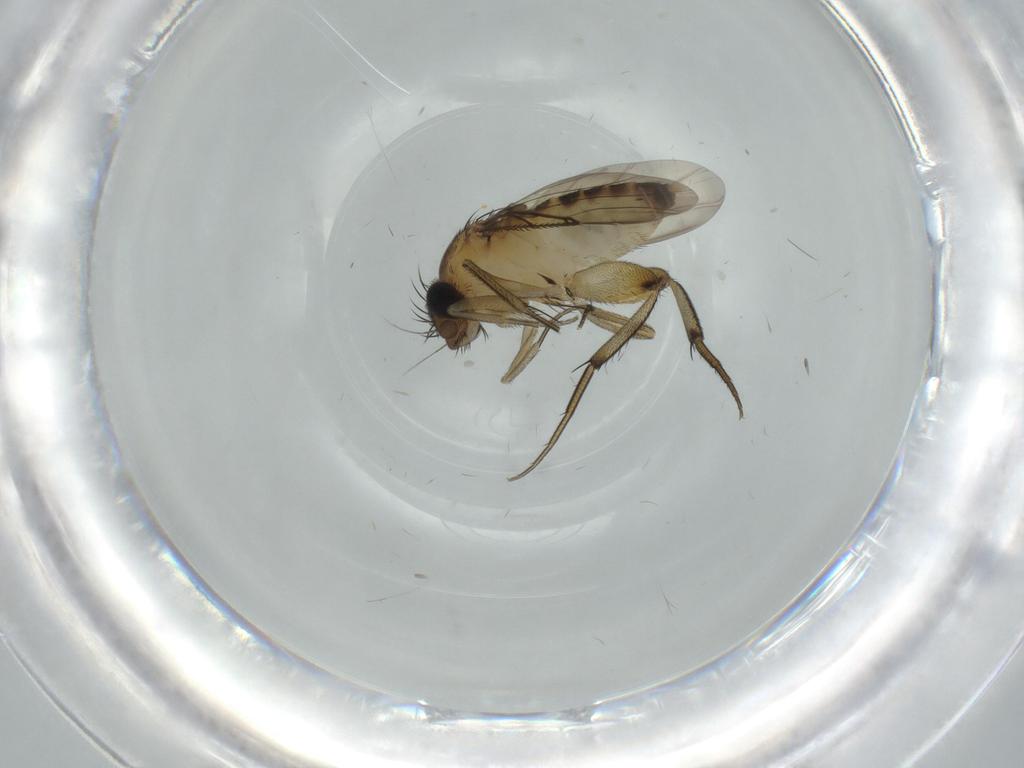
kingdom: Animalia
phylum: Arthropoda
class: Insecta
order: Diptera
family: Phoridae
